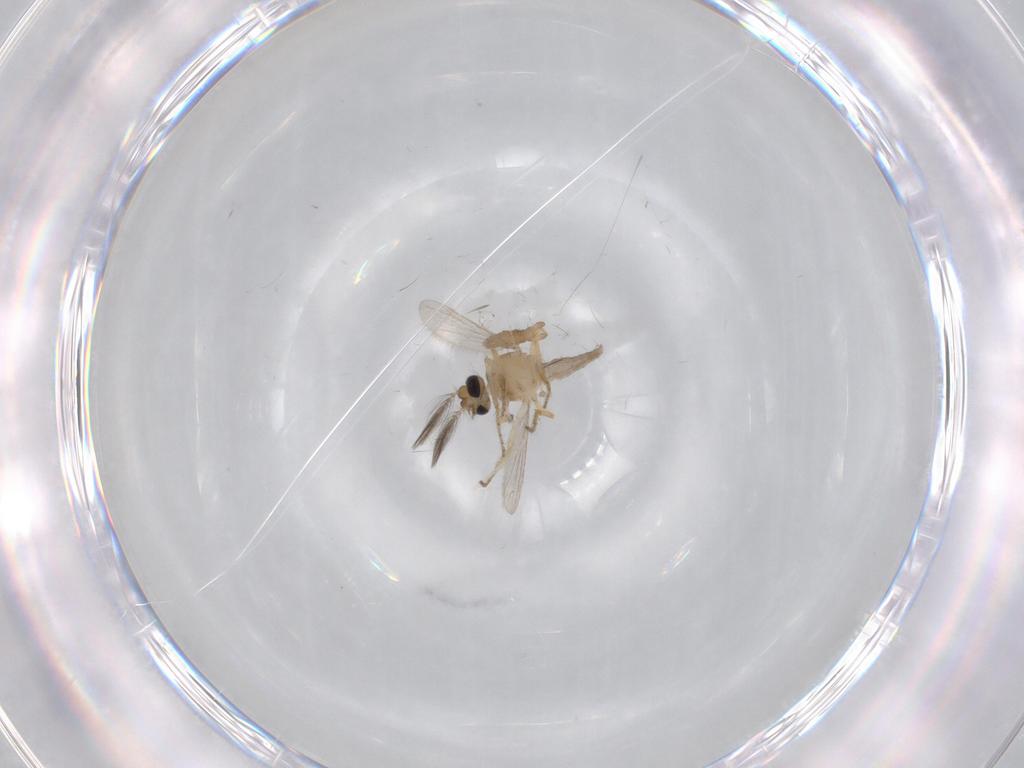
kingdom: Animalia
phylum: Arthropoda
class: Insecta
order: Diptera
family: Ceratopogonidae
